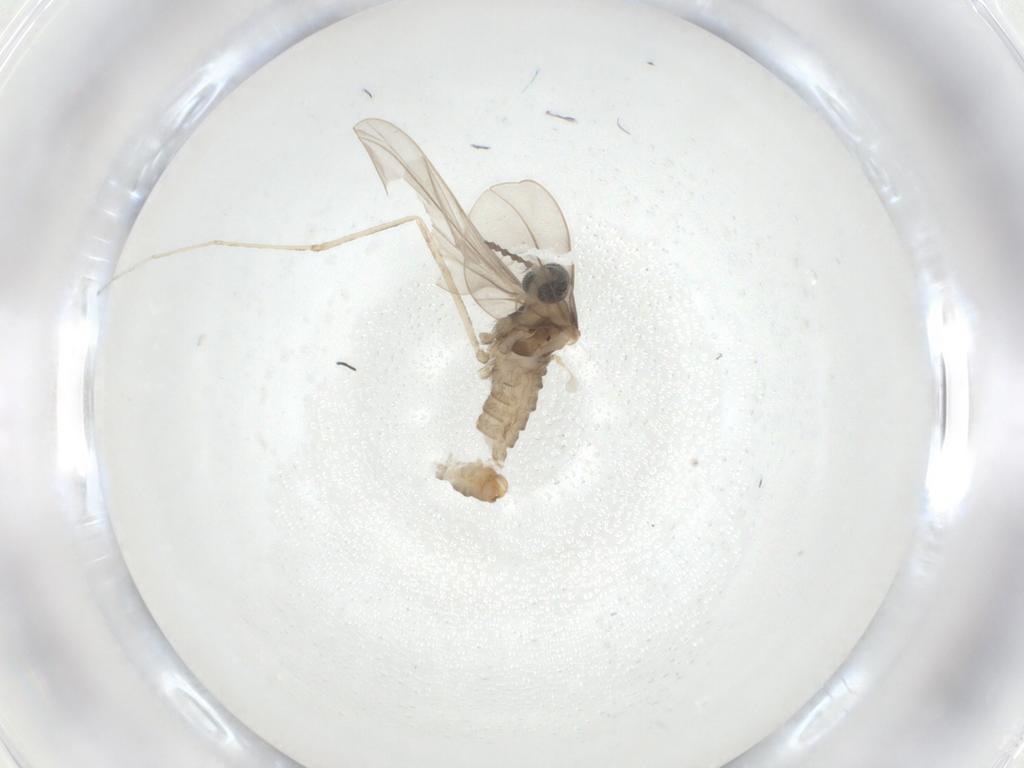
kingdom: Animalia
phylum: Arthropoda
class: Insecta
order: Diptera
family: Cecidomyiidae
